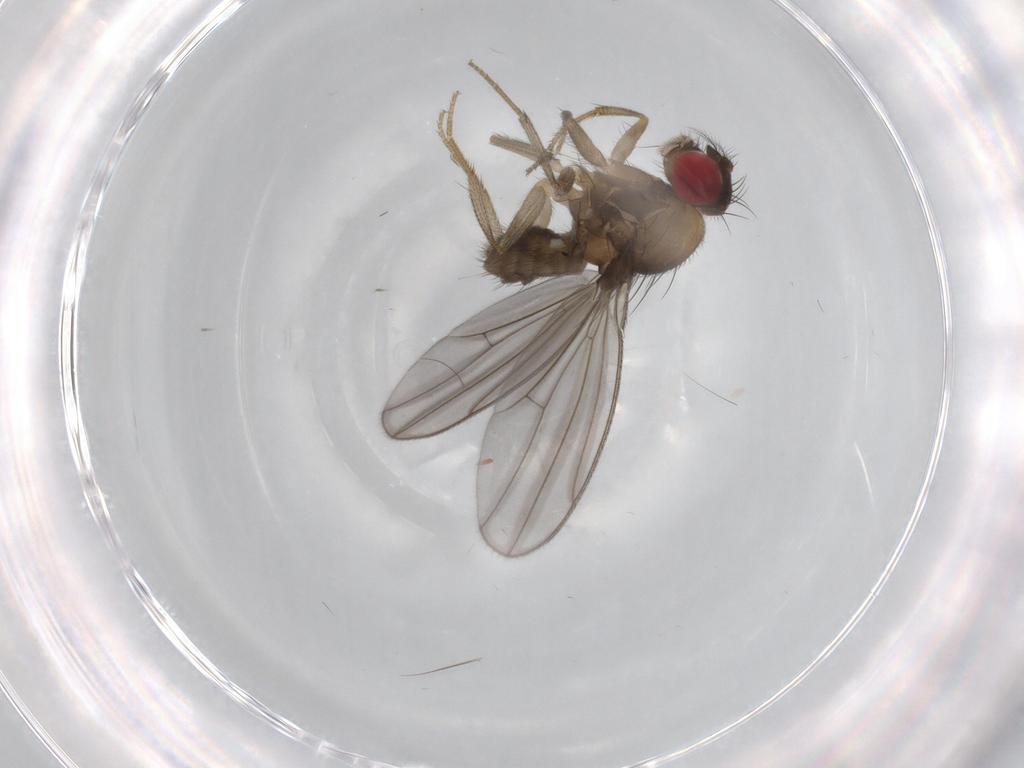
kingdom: Animalia
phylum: Arthropoda
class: Insecta
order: Diptera
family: Drosophilidae
